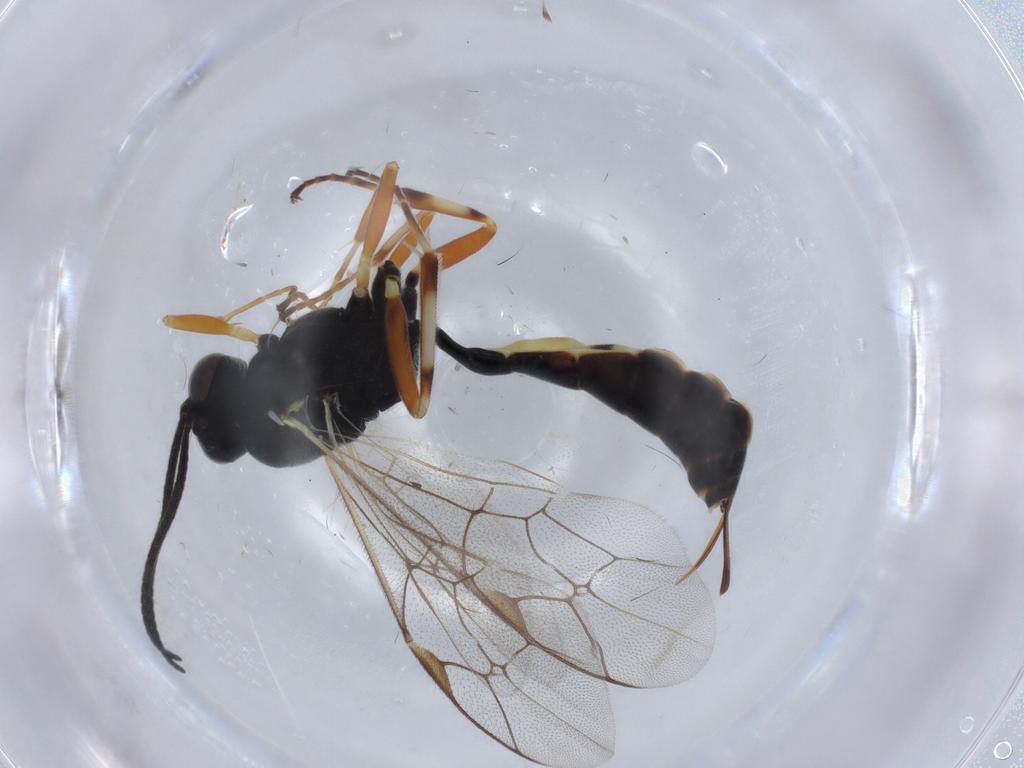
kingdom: Animalia
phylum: Arthropoda
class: Insecta
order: Hymenoptera
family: Ichneumonidae
